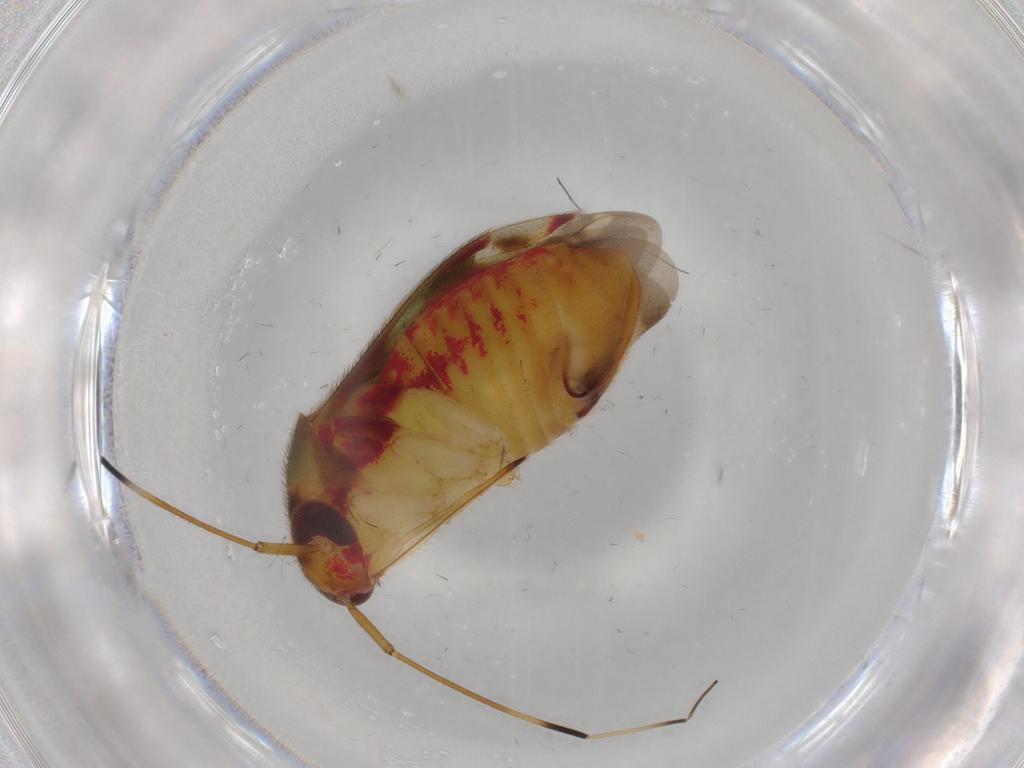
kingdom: Animalia
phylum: Arthropoda
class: Insecta
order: Hemiptera
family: Miridae
